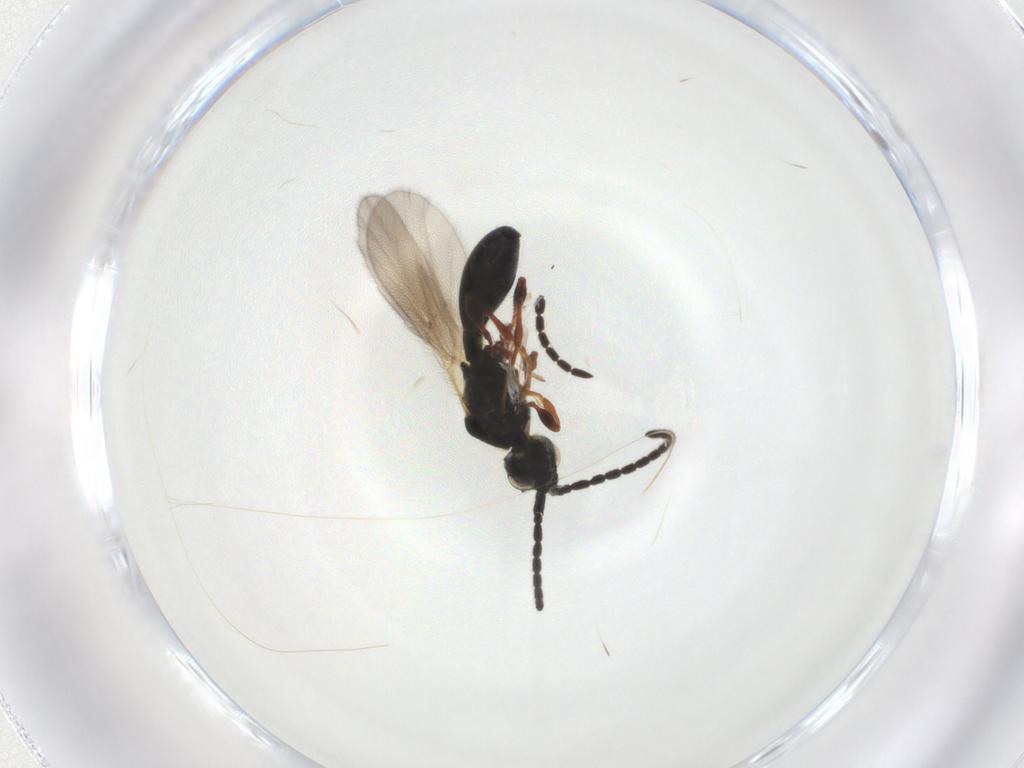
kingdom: Animalia
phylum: Arthropoda
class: Insecta
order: Hymenoptera
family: Diapriidae
